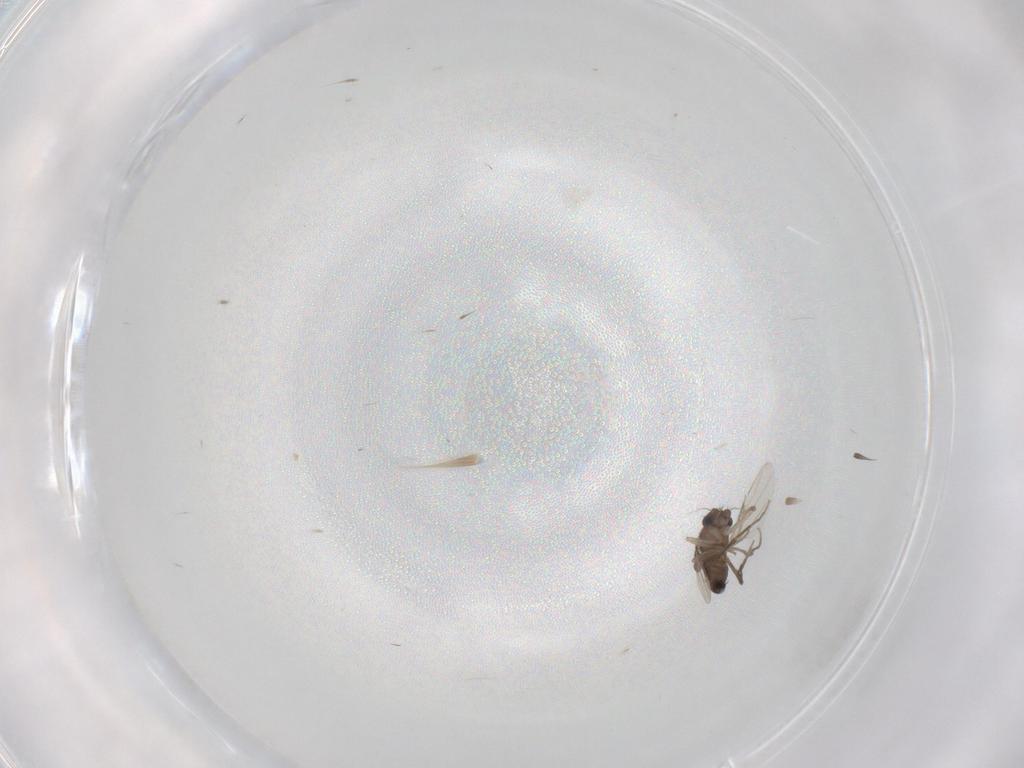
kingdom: Animalia
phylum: Arthropoda
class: Insecta
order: Diptera
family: Phoridae
